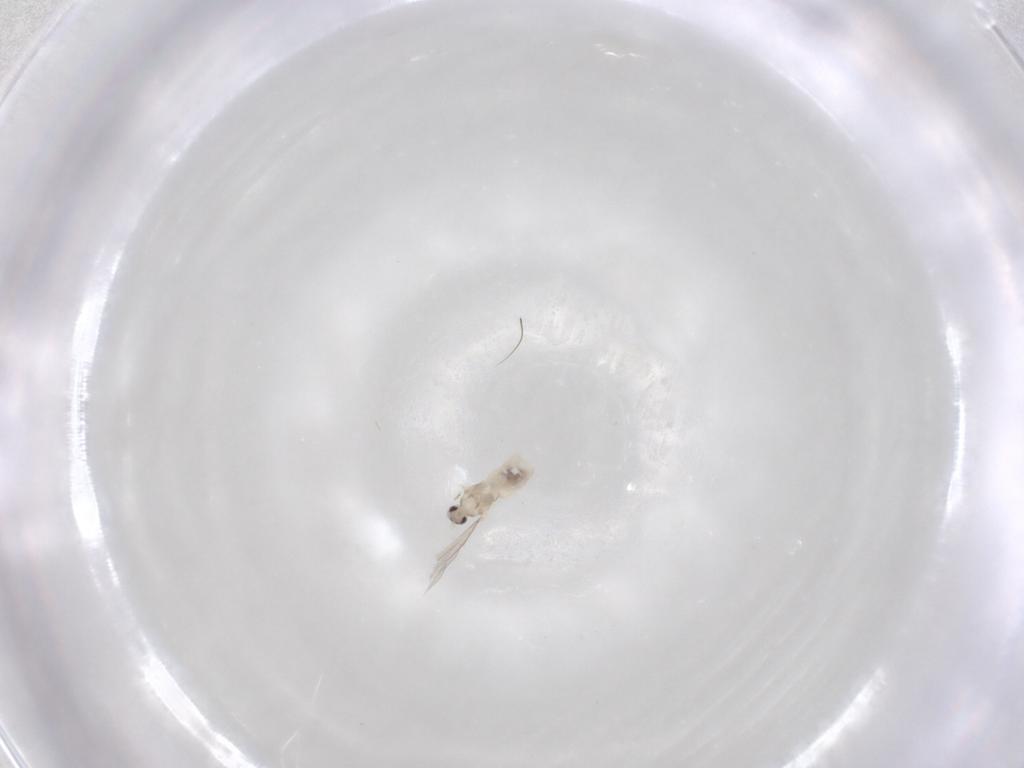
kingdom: Animalia
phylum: Arthropoda
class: Insecta
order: Diptera
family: Cecidomyiidae
